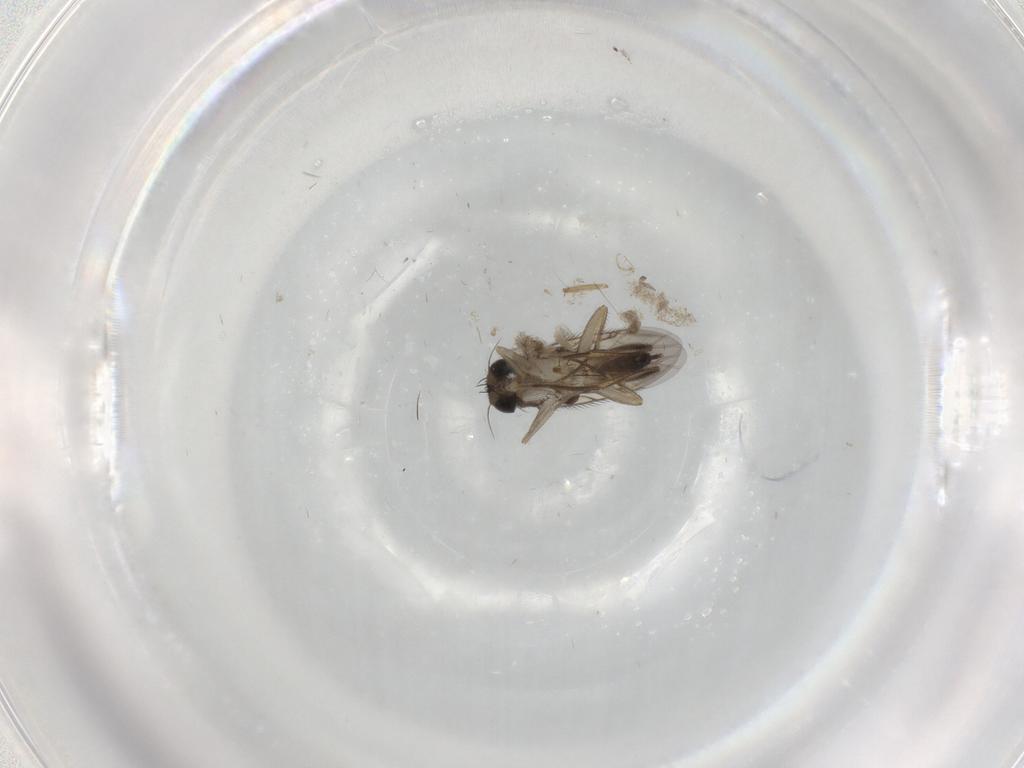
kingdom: Animalia
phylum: Arthropoda
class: Insecta
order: Diptera
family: Phoridae
